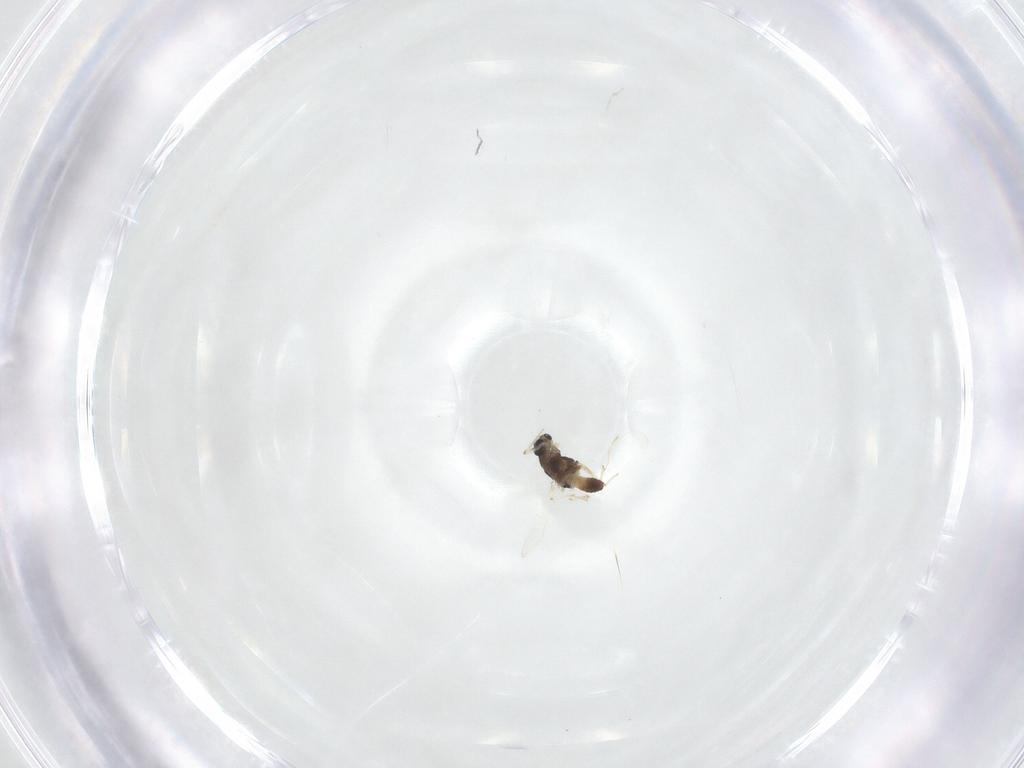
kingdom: Animalia
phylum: Arthropoda
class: Insecta
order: Diptera
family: Chironomidae
